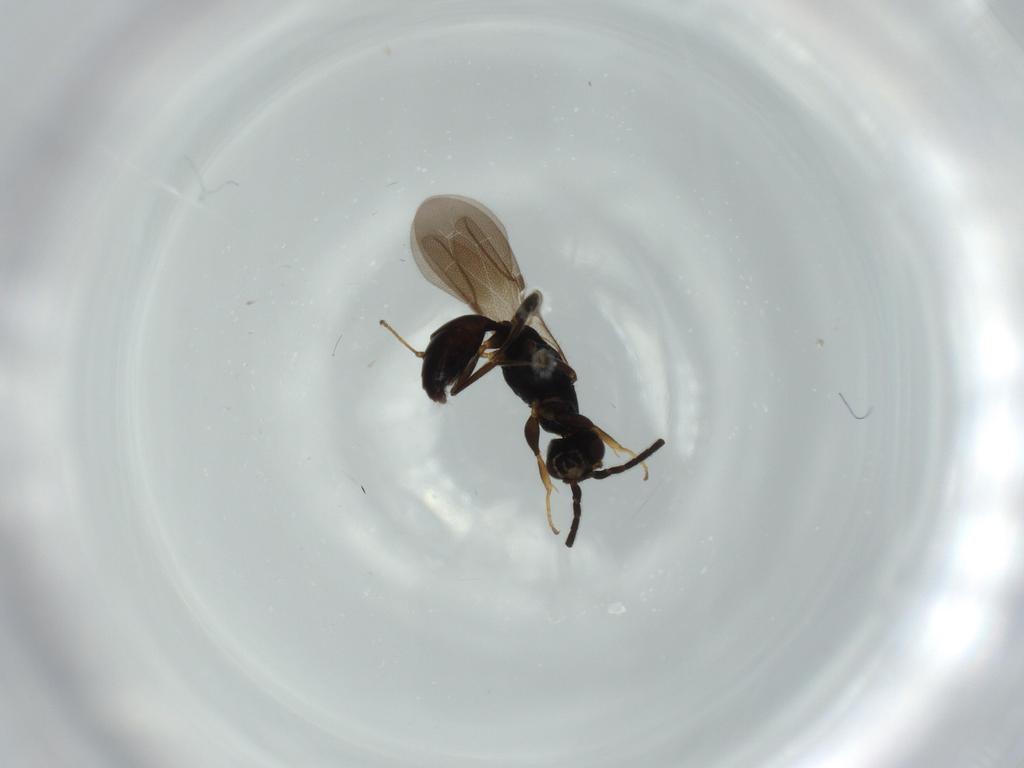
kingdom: Animalia
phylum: Arthropoda
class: Insecta
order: Hymenoptera
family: Bethylidae
